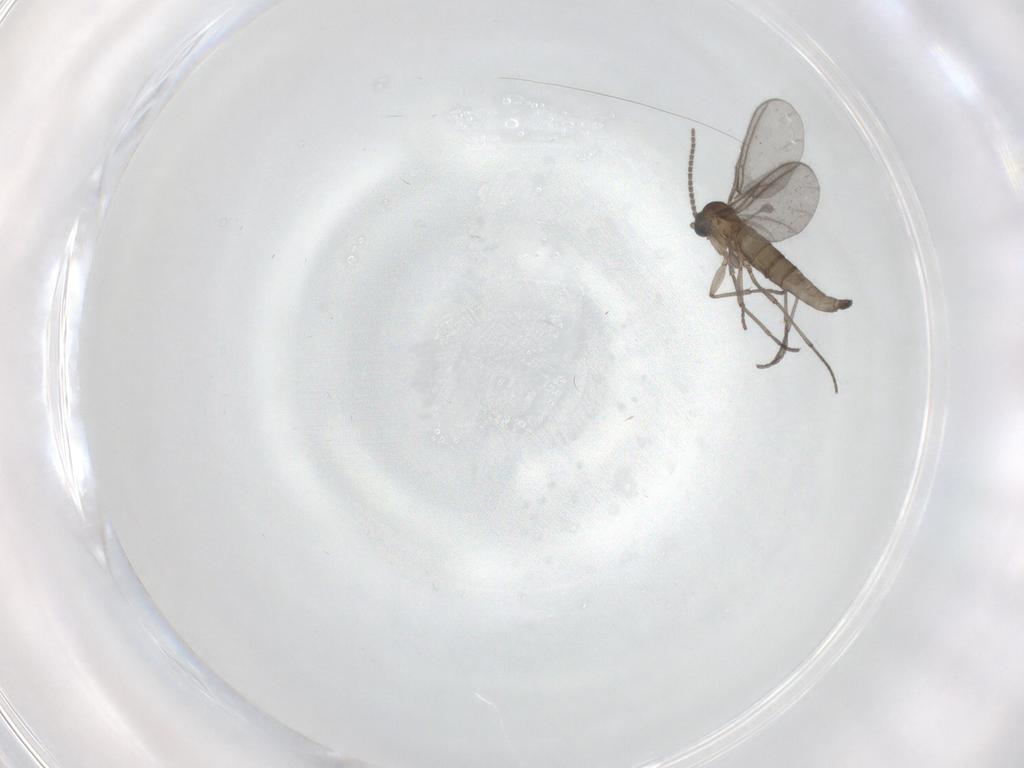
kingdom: Animalia
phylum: Arthropoda
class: Insecta
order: Diptera
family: Sciaridae
